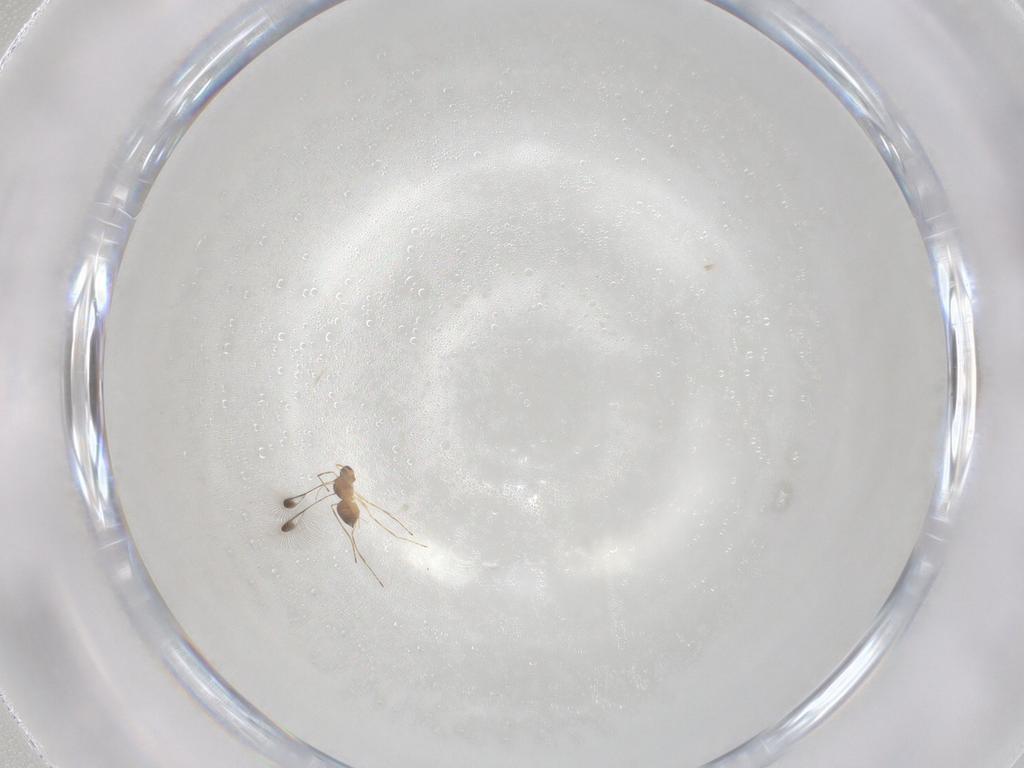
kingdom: Animalia
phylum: Arthropoda
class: Insecta
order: Hymenoptera
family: Mymaridae
